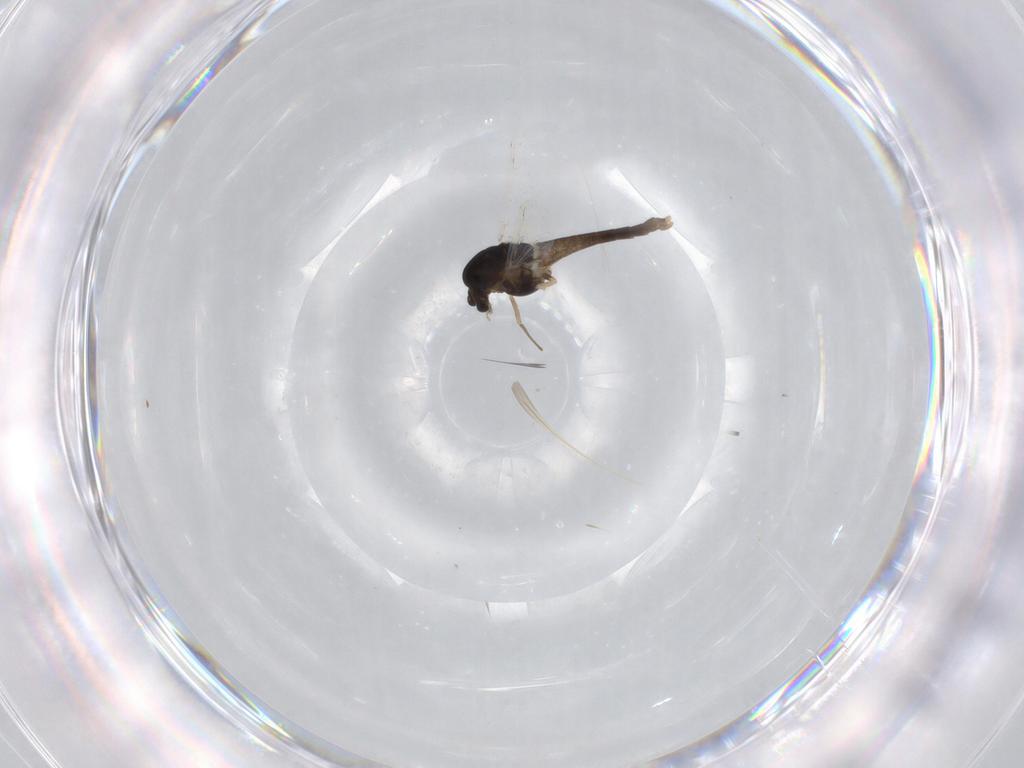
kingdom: Animalia
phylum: Arthropoda
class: Insecta
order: Diptera
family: Chironomidae
